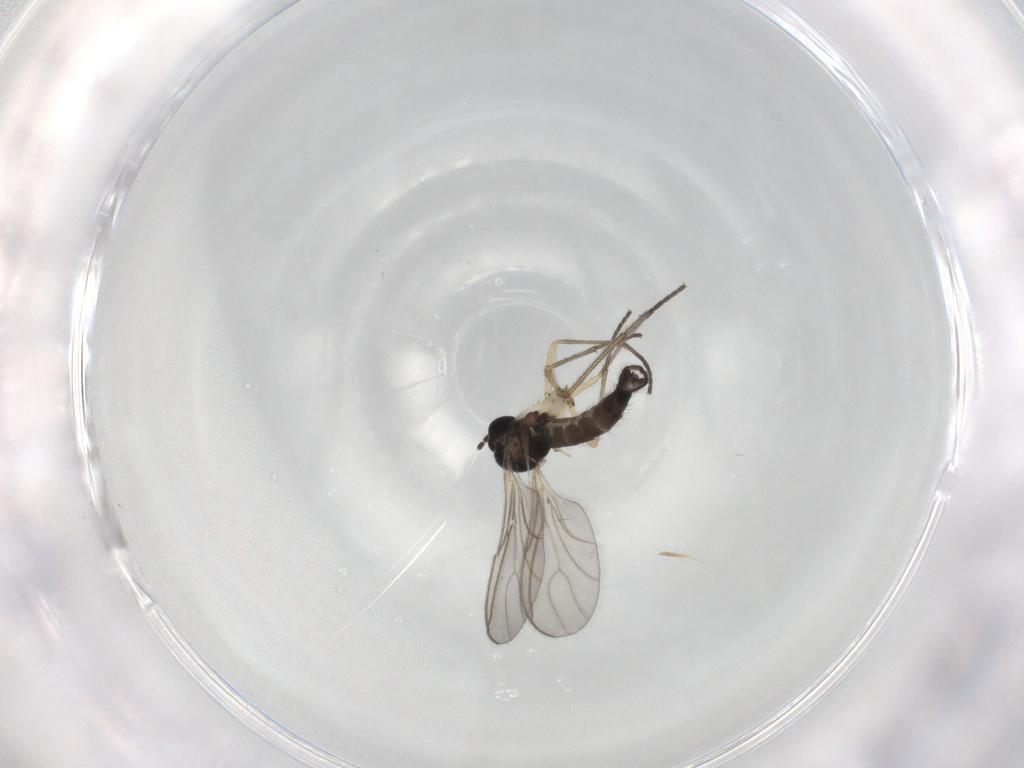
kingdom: Animalia
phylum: Arthropoda
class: Insecta
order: Diptera
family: Sciaridae
